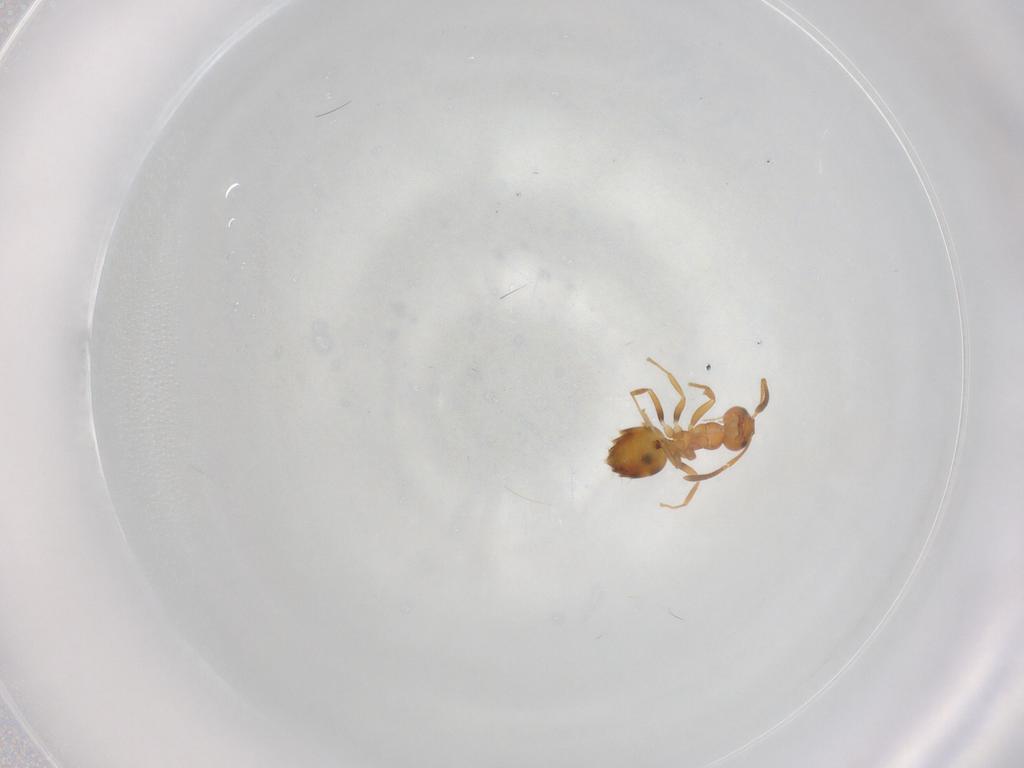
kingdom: Animalia
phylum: Arthropoda
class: Insecta
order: Hymenoptera
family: Formicidae
